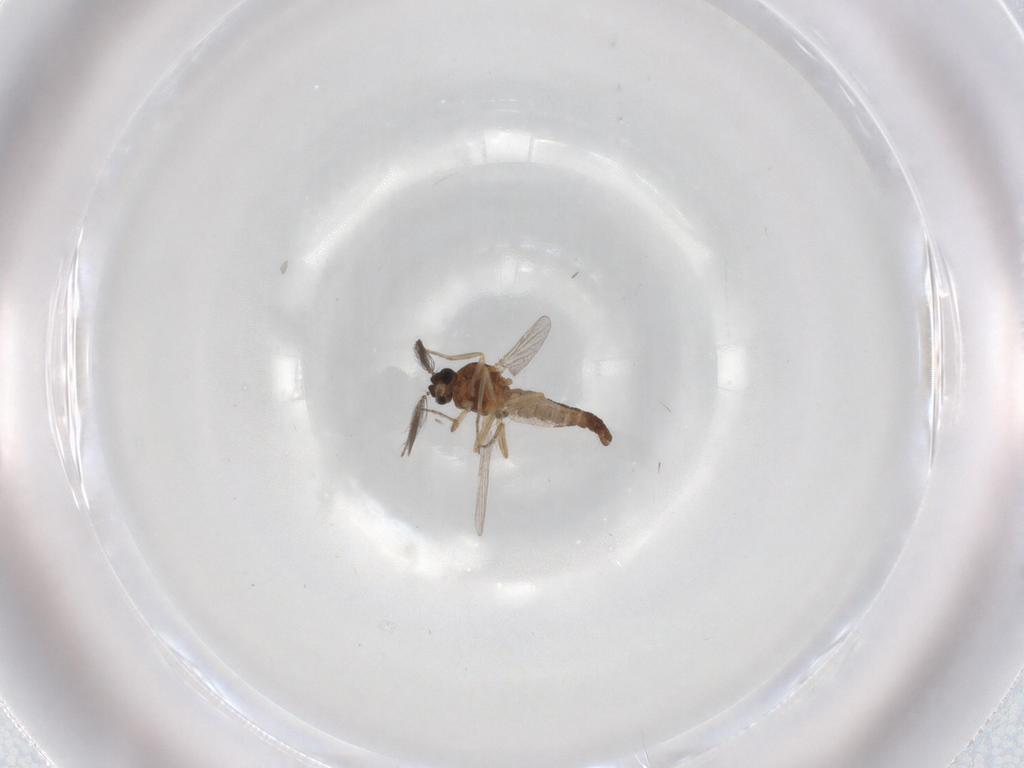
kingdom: Animalia
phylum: Arthropoda
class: Insecta
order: Diptera
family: Ceratopogonidae
